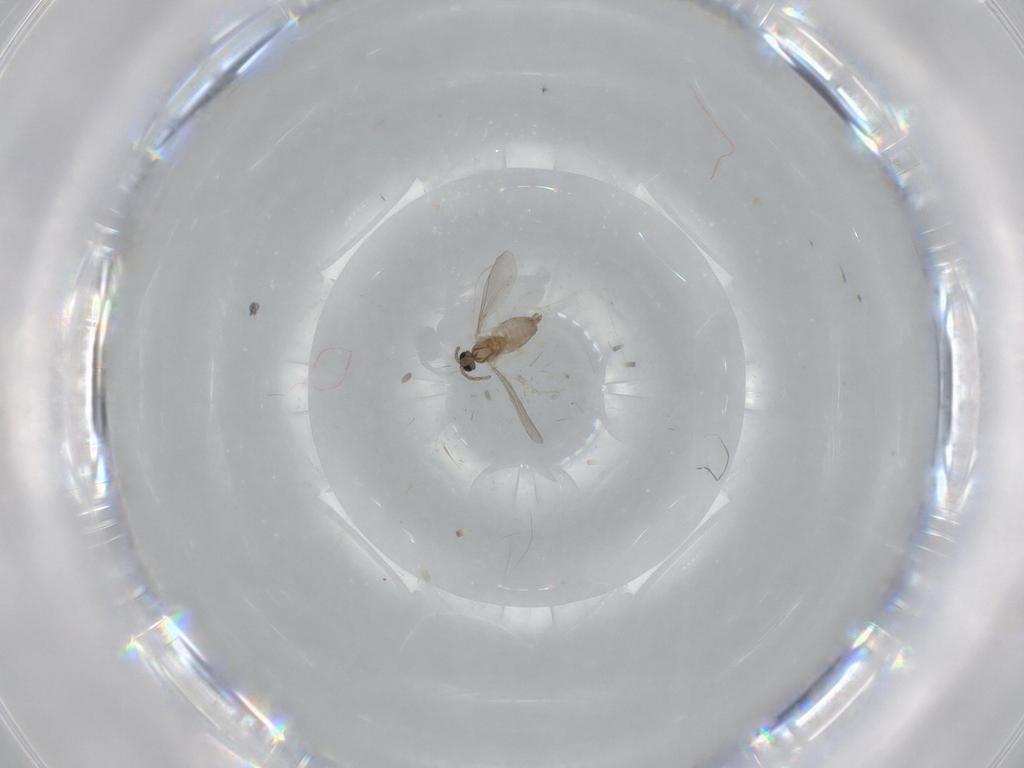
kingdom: Animalia
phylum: Arthropoda
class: Insecta
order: Diptera
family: Cecidomyiidae
